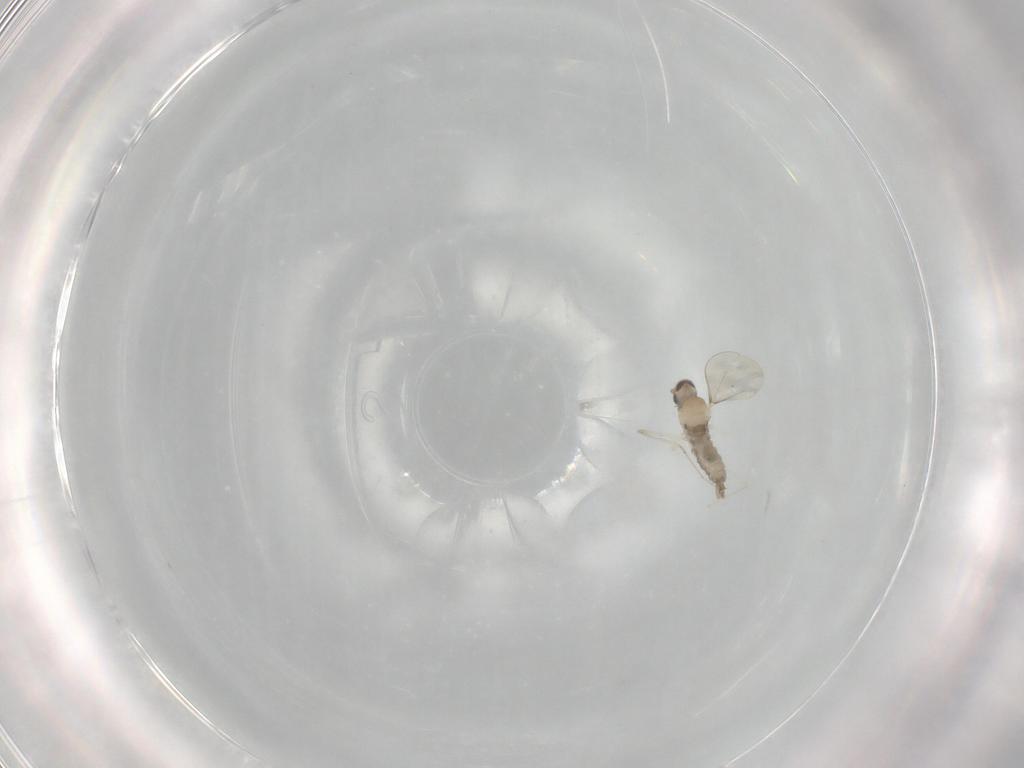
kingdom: Animalia
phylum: Arthropoda
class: Insecta
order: Diptera
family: Cecidomyiidae
